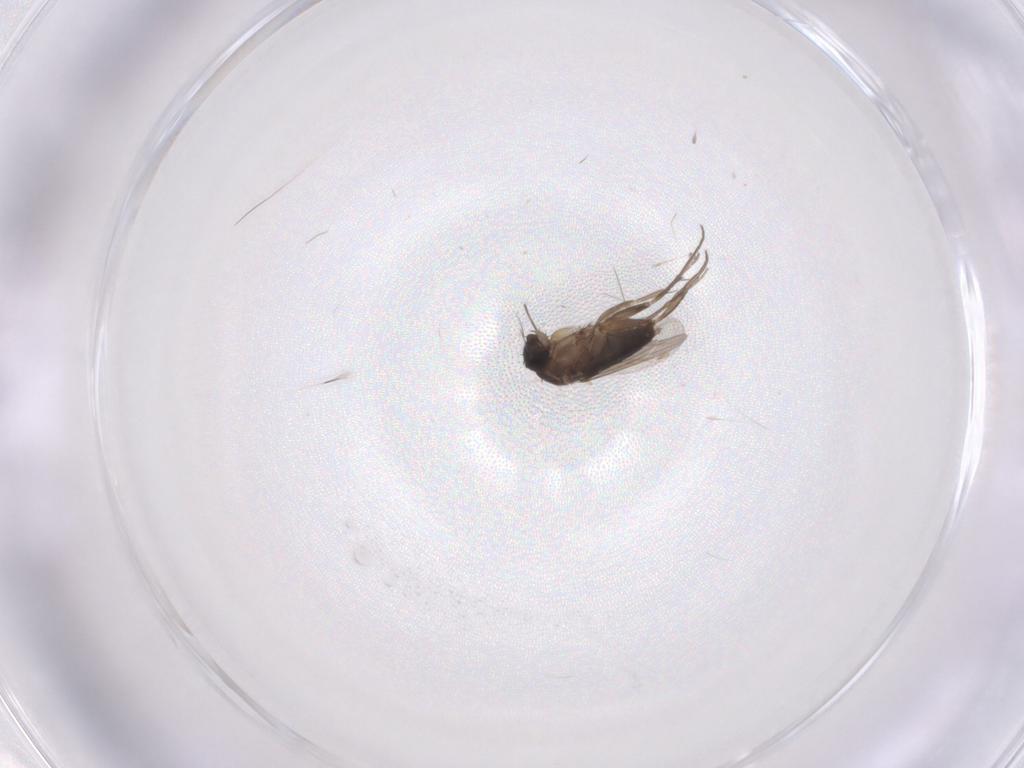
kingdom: Animalia
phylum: Arthropoda
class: Insecta
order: Diptera
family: Phoridae
